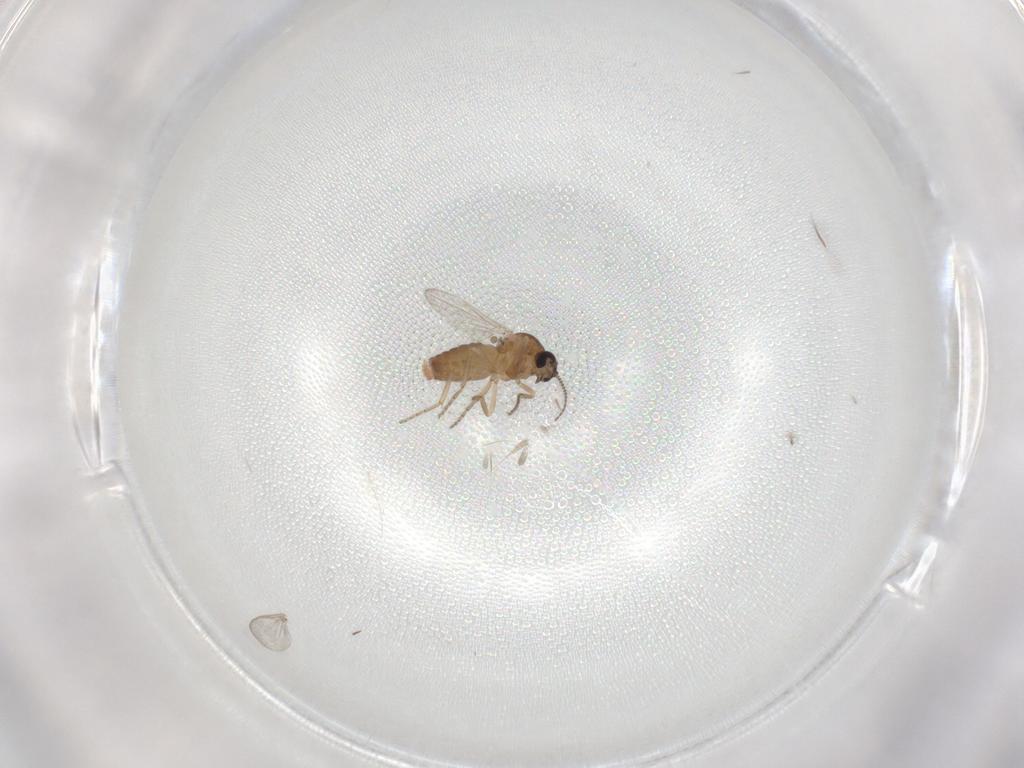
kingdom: Animalia
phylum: Arthropoda
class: Insecta
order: Diptera
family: Ceratopogonidae
